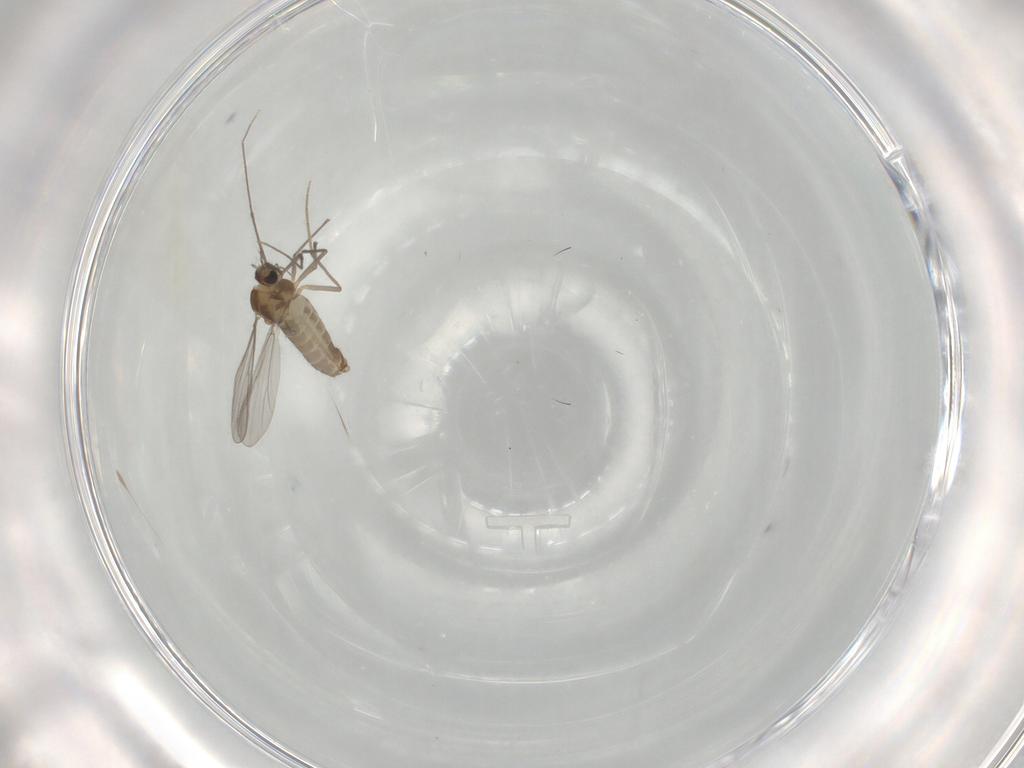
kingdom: Animalia
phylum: Arthropoda
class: Insecta
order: Diptera
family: Chironomidae
